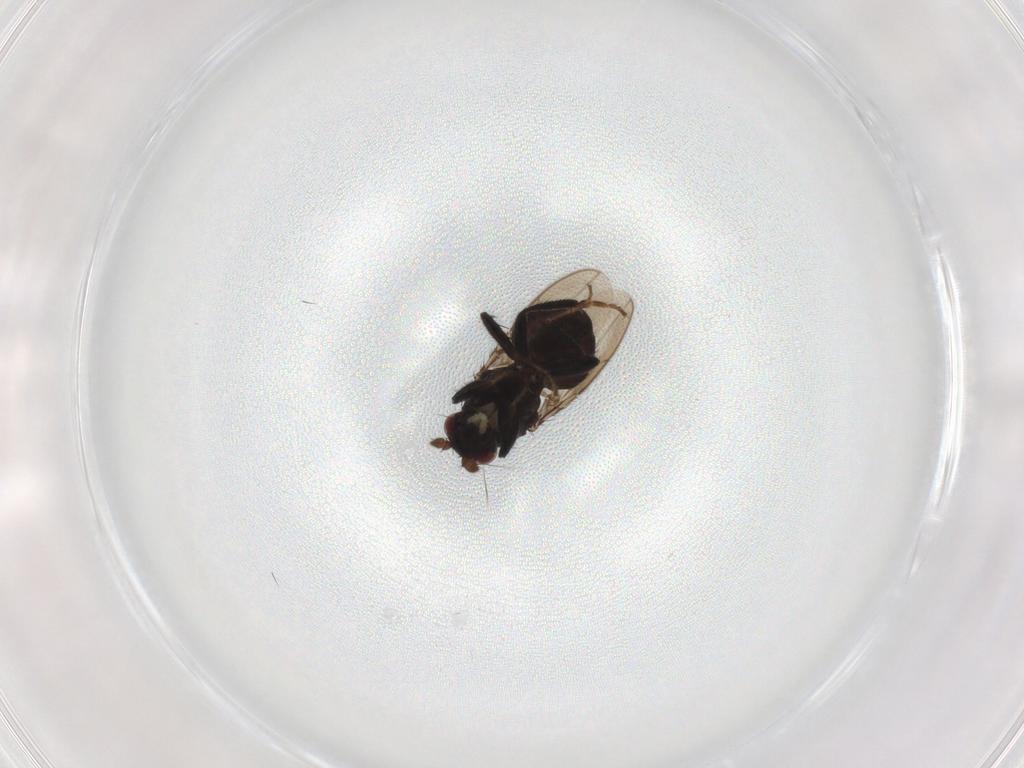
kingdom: Animalia
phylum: Arthropoda
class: Insecta
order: Diptera
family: Sphaeroceridae
